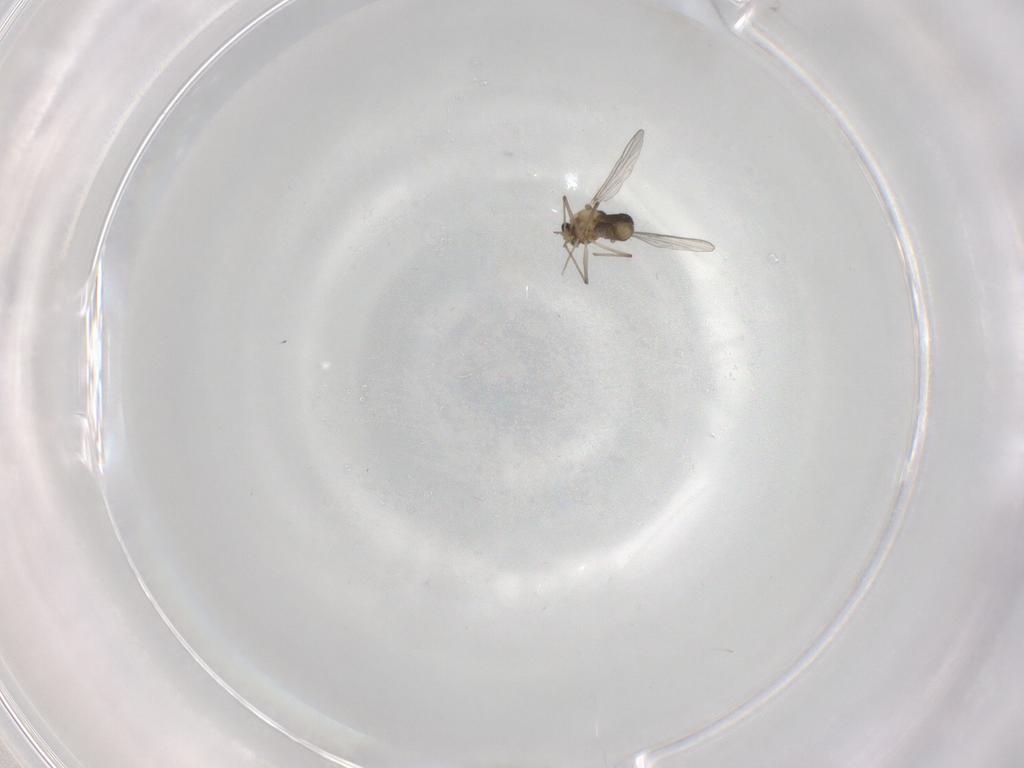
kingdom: Animalia
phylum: Arthropoda
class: Insecta
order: Diptera
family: Chironomidae
